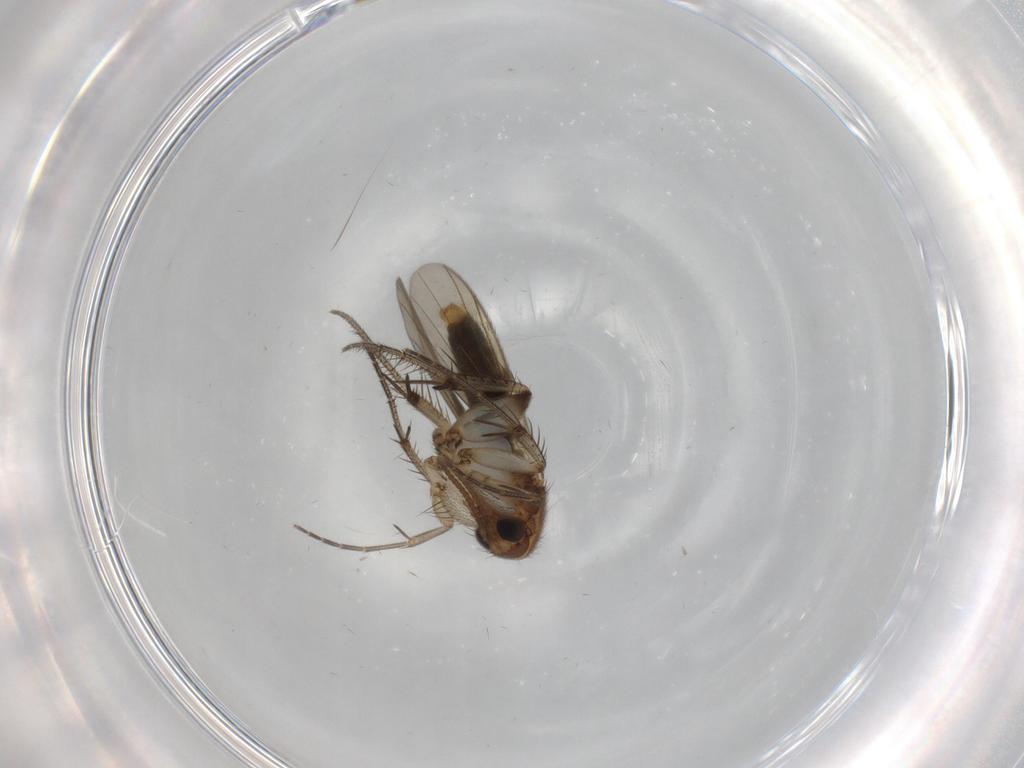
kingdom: Animalia
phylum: Arthropoda
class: Insecta
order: Diptera
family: Mycetophilidae
